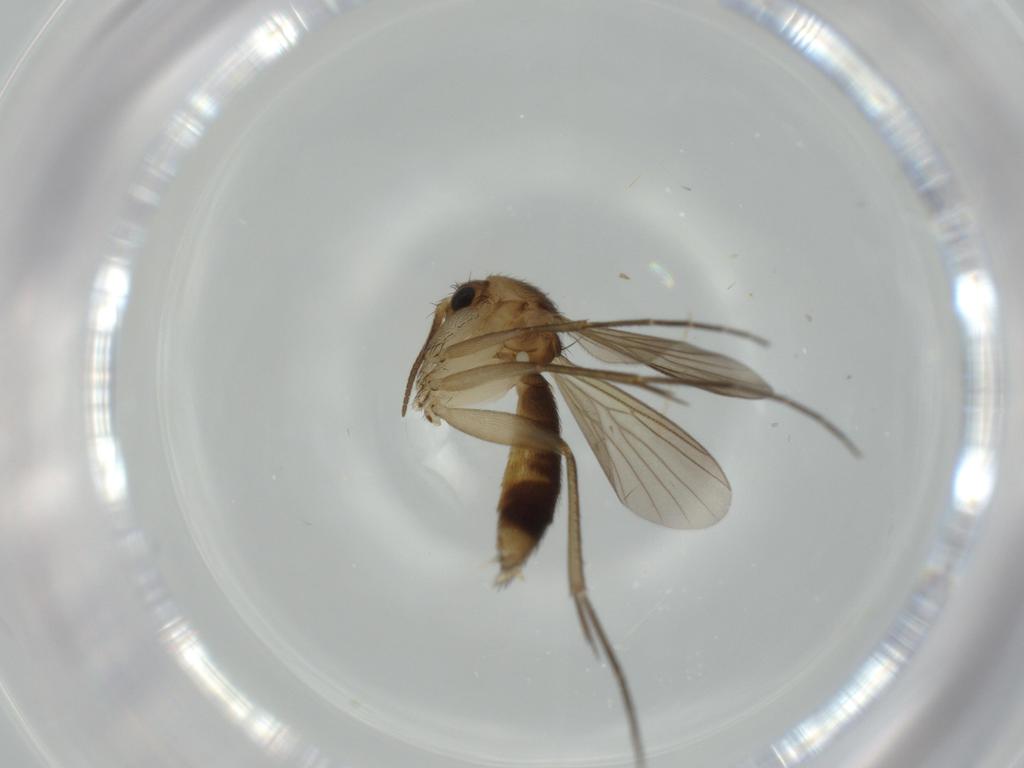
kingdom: Animalia
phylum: Arthropoda
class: Insecta
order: Diptera
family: Mycetophilidae
